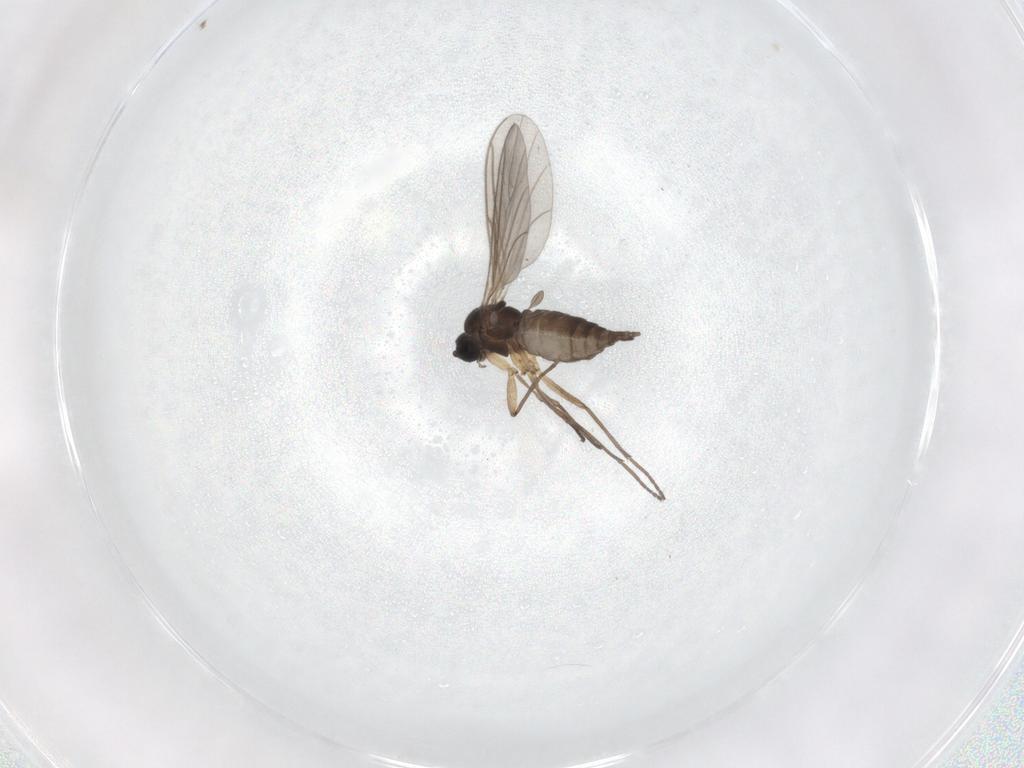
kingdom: Animalia
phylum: Arthropoda
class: Insecta
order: Diptera
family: Sciaridae
